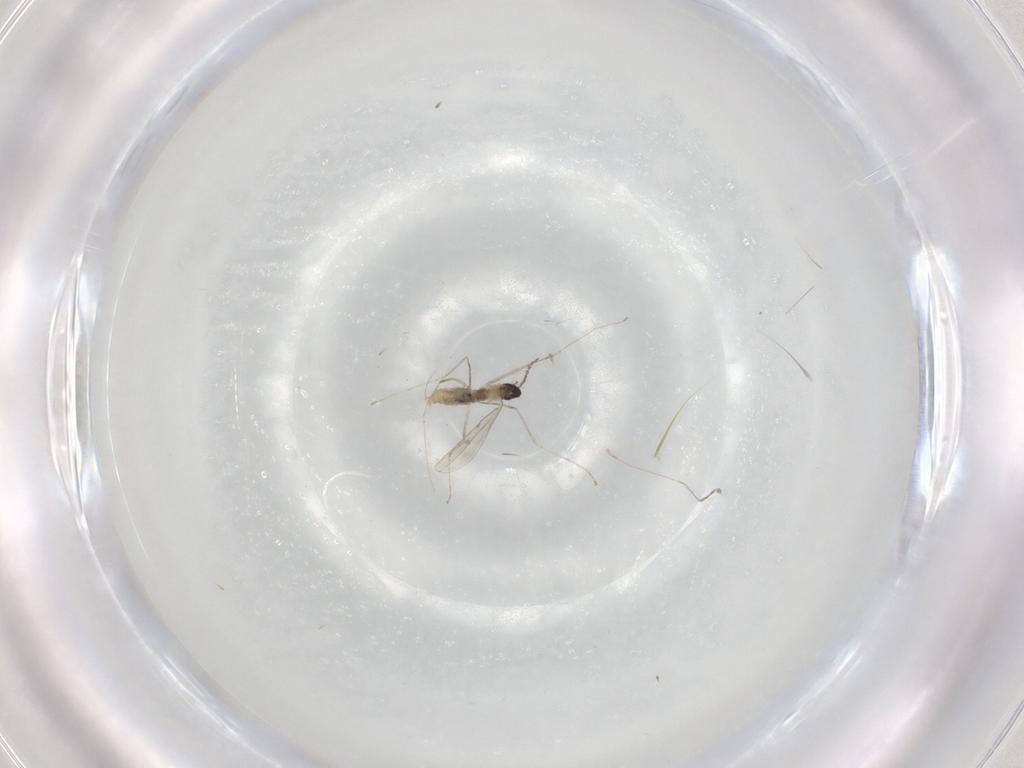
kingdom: Animalia
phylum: Arthropoda
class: Insecta
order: Diptera
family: Cecidomyiidae
